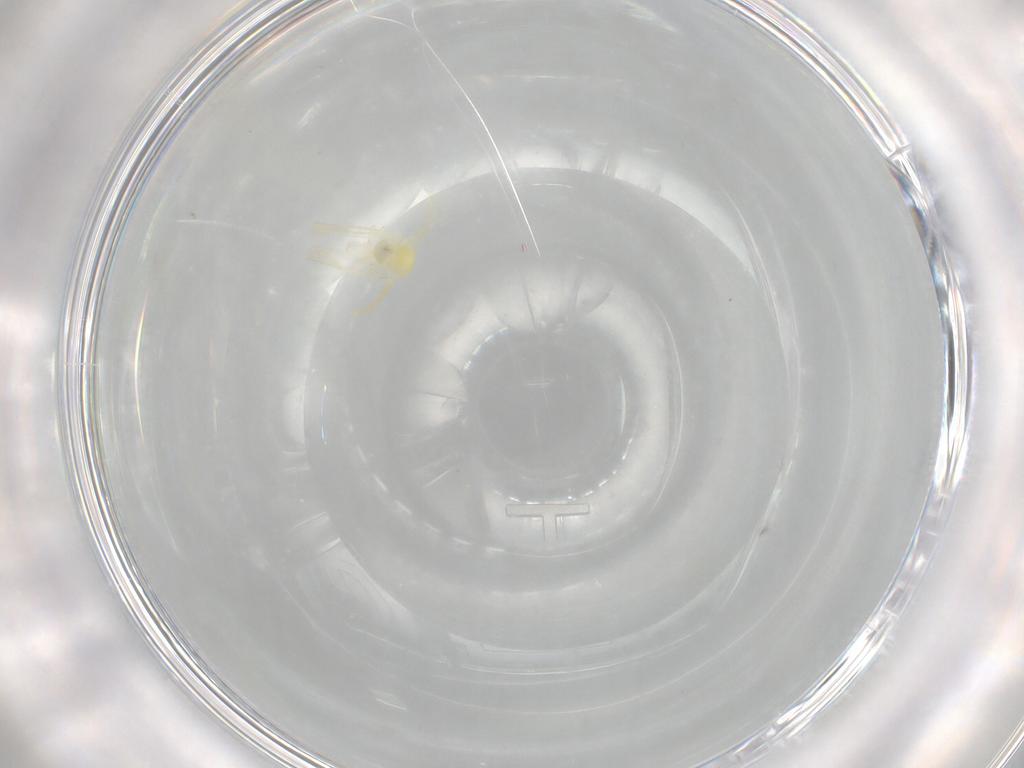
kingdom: Animalia
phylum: Arthropoda
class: Insecta
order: Hemiptera
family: Aleyrodidae
